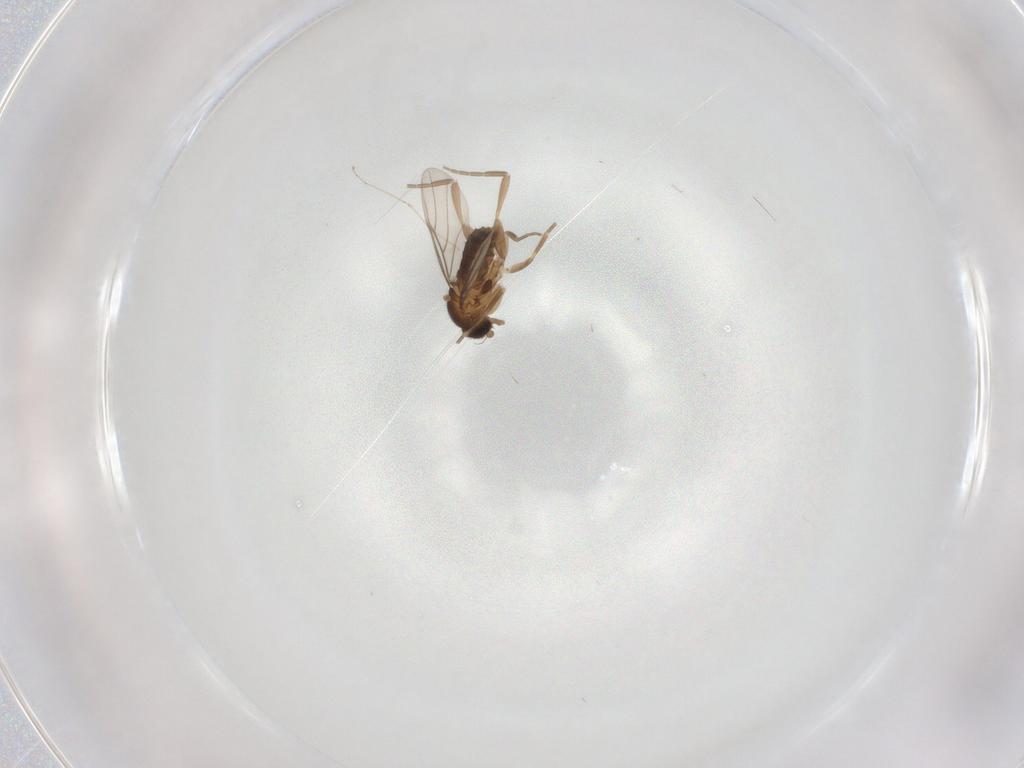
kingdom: Animalia
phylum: Arthropoda
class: Insecta
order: Diptera
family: Phoridae
